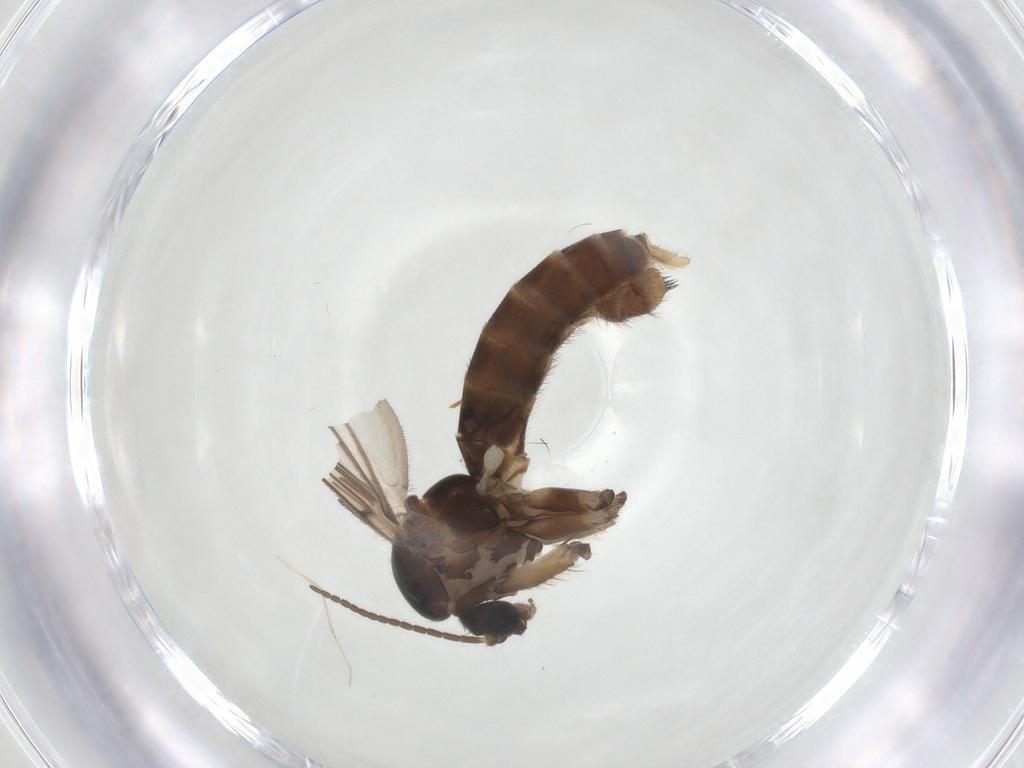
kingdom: Animalia
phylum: Arthropoda
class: Insecta
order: Diptera
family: Mycetophilidae
